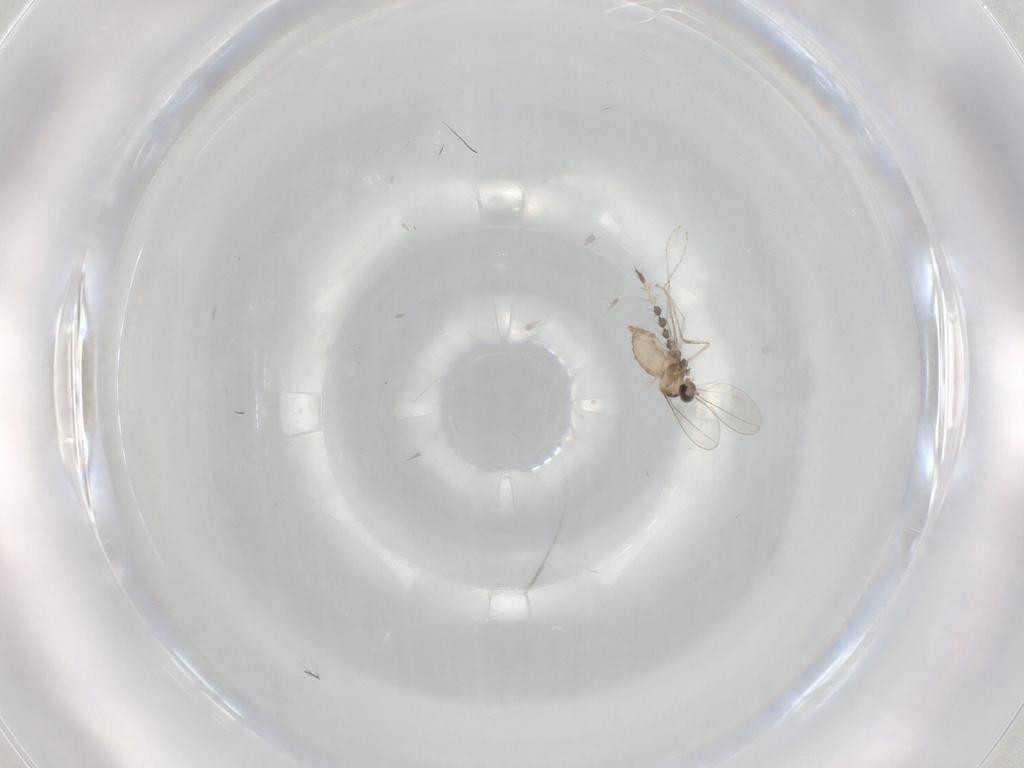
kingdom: Animalia
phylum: Arthropoda
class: Insecta
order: Diptera
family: Cecidomyiidae
